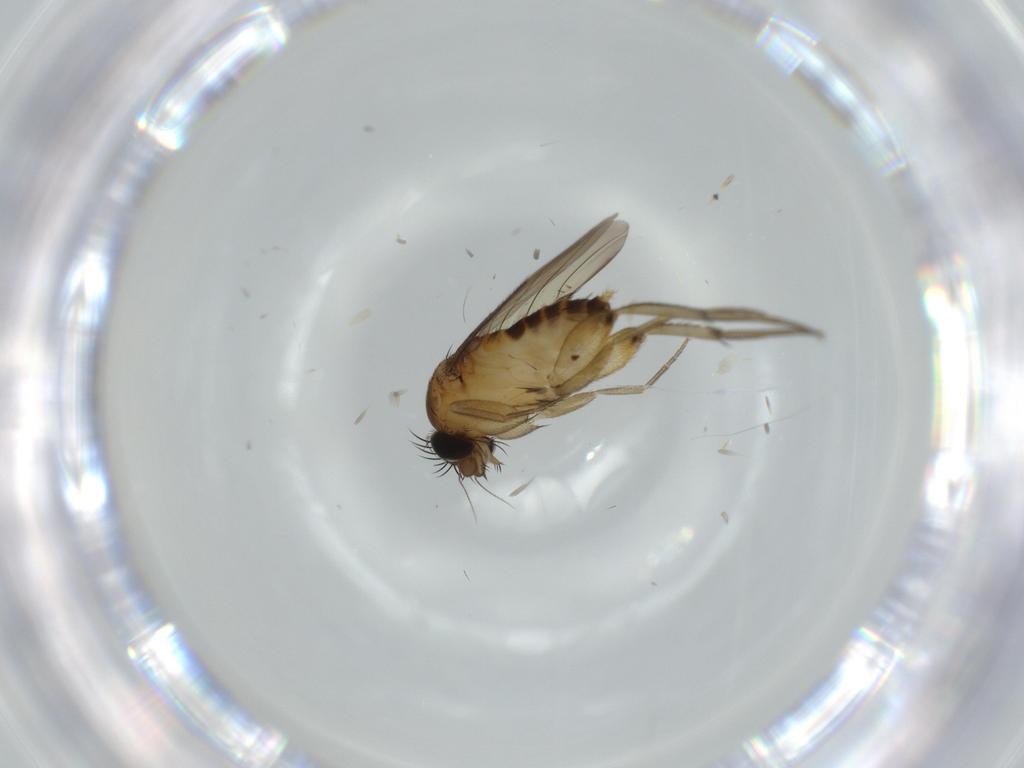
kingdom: Animalia
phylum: Arthropoda
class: Insecta
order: Diptera
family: Phoridae
